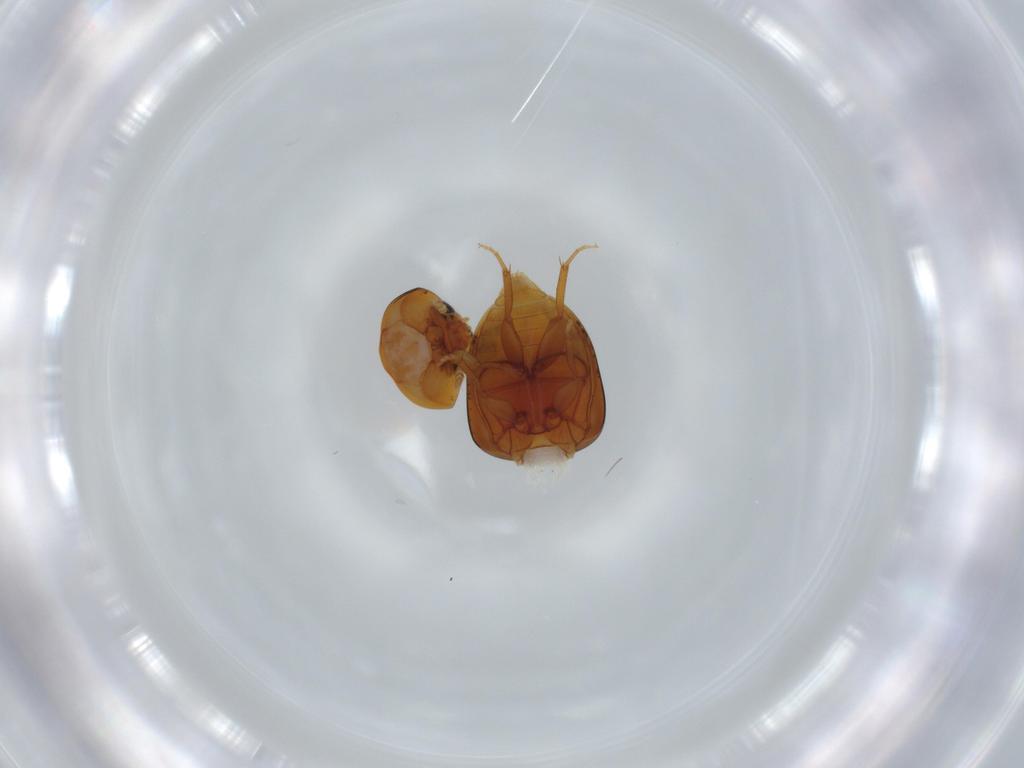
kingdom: Animalia
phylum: Arthropoda
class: Insecta
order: Coleoptera
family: Phalacridae
